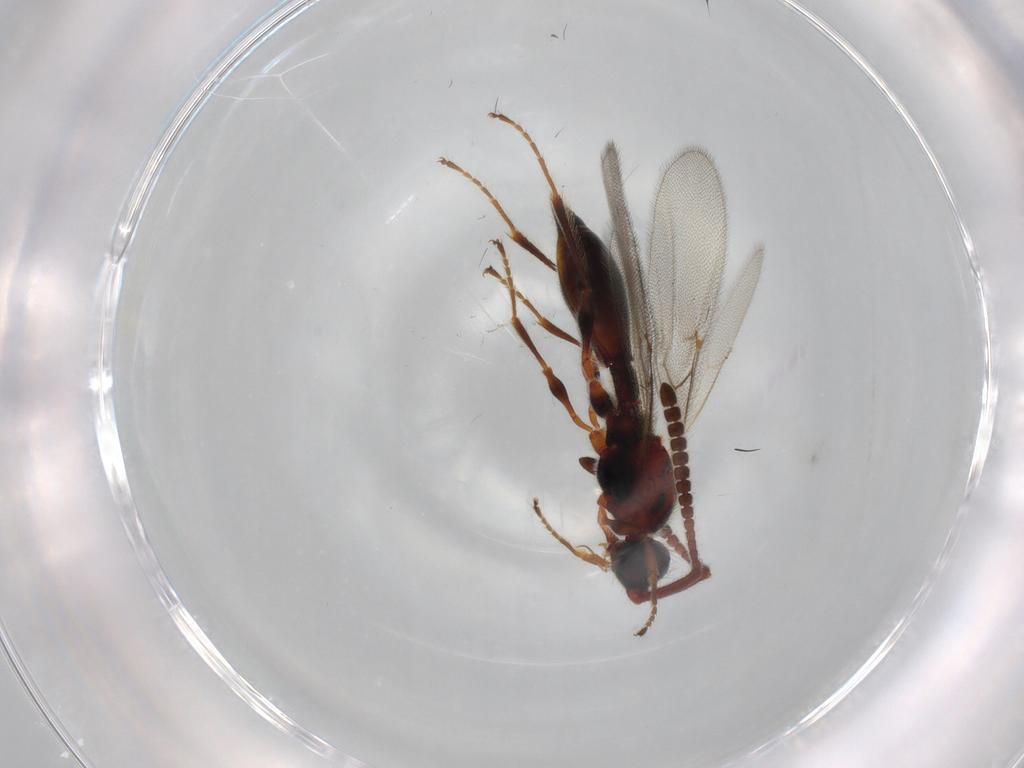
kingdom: Animalia
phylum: Arthropoda
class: Insecta
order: Hymenoptera
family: Diapriidae
